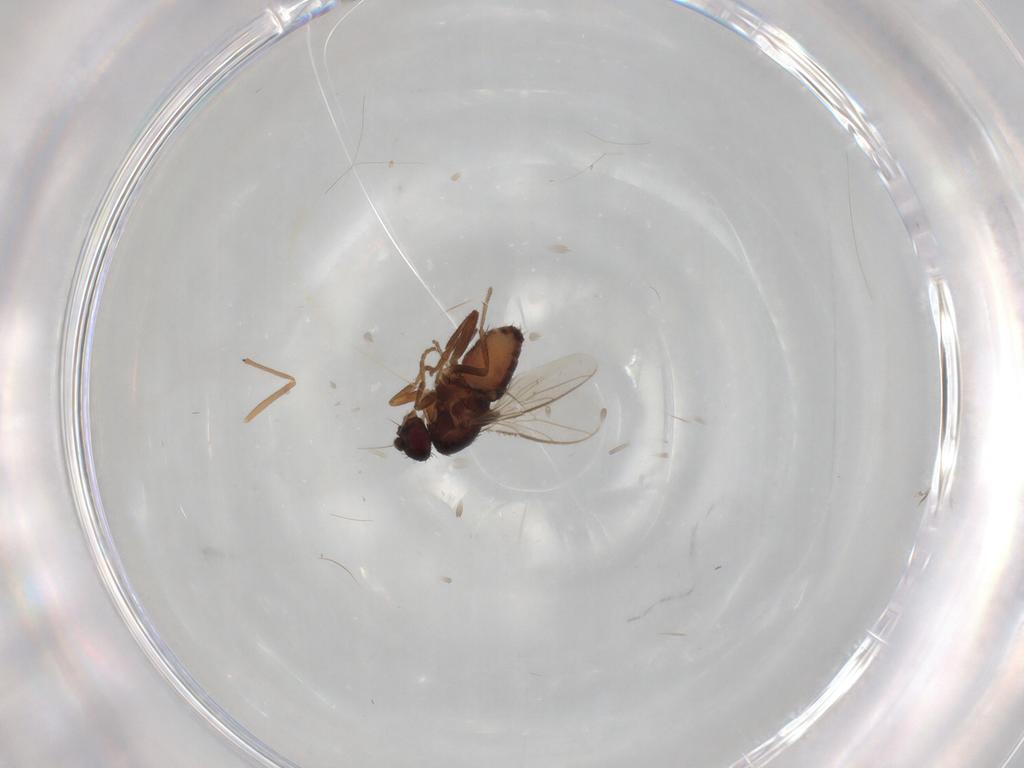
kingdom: Animalia
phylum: Arthropoda
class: Insecta
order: Diptera
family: Sphaeroceridae
